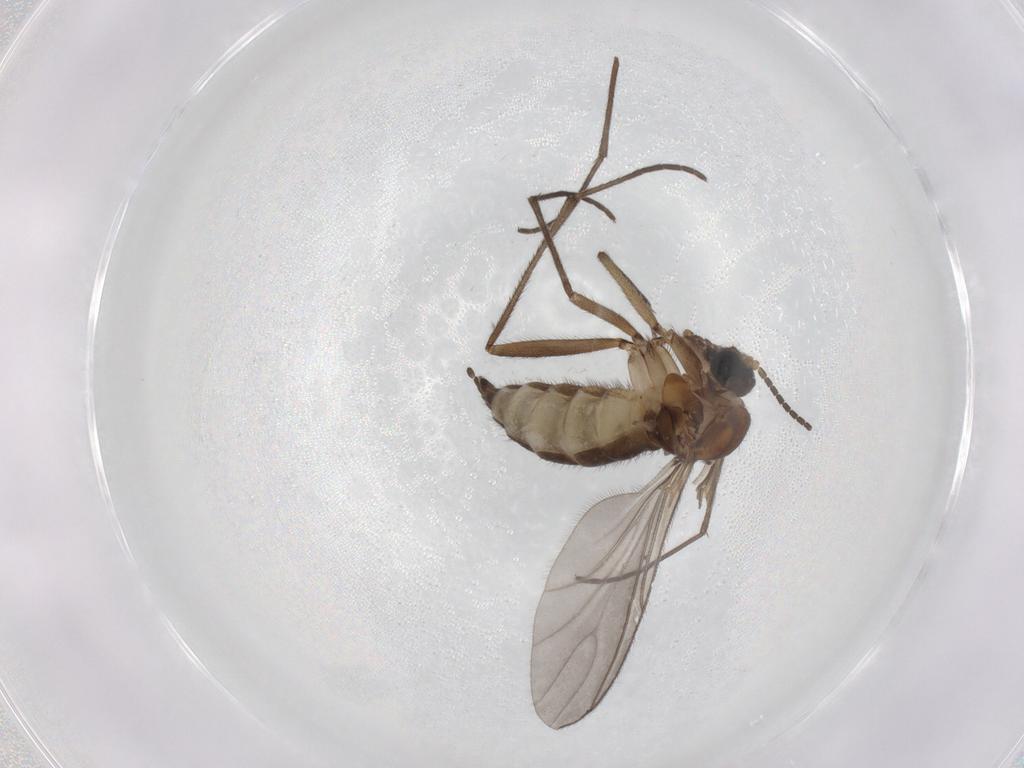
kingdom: Animalia
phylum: Arthropoda
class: Insecta
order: Diptera
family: Sciaridae
